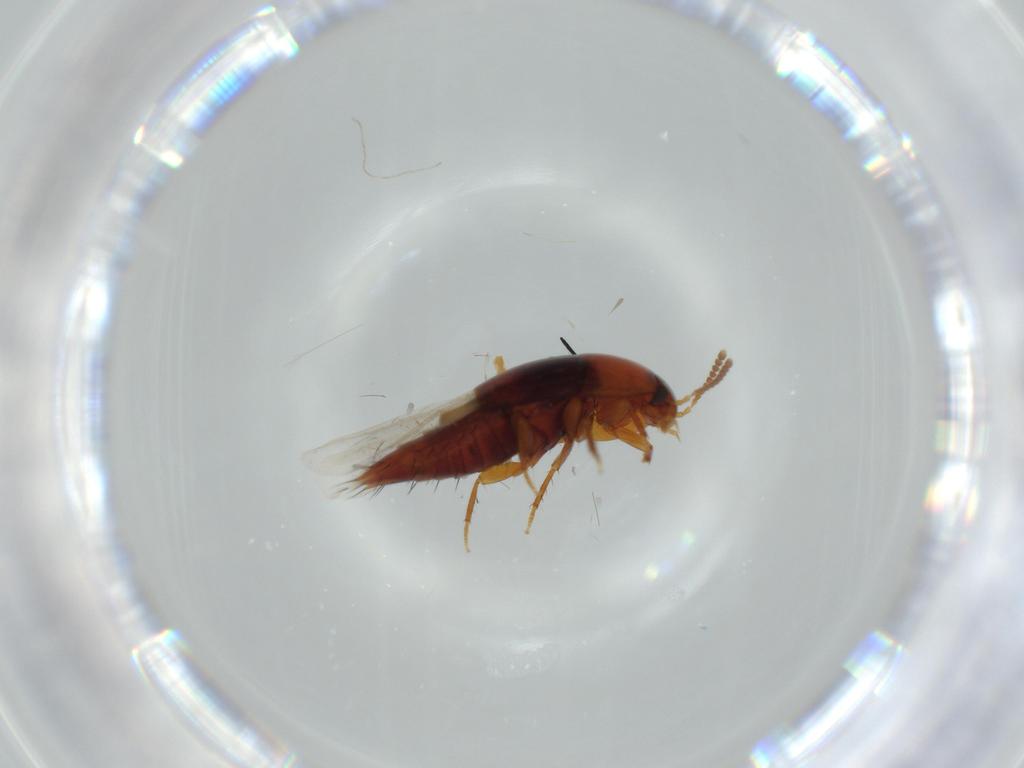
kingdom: Animalia
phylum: Arthropoda
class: Insecta
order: Coleoptera
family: Staphylinidae
